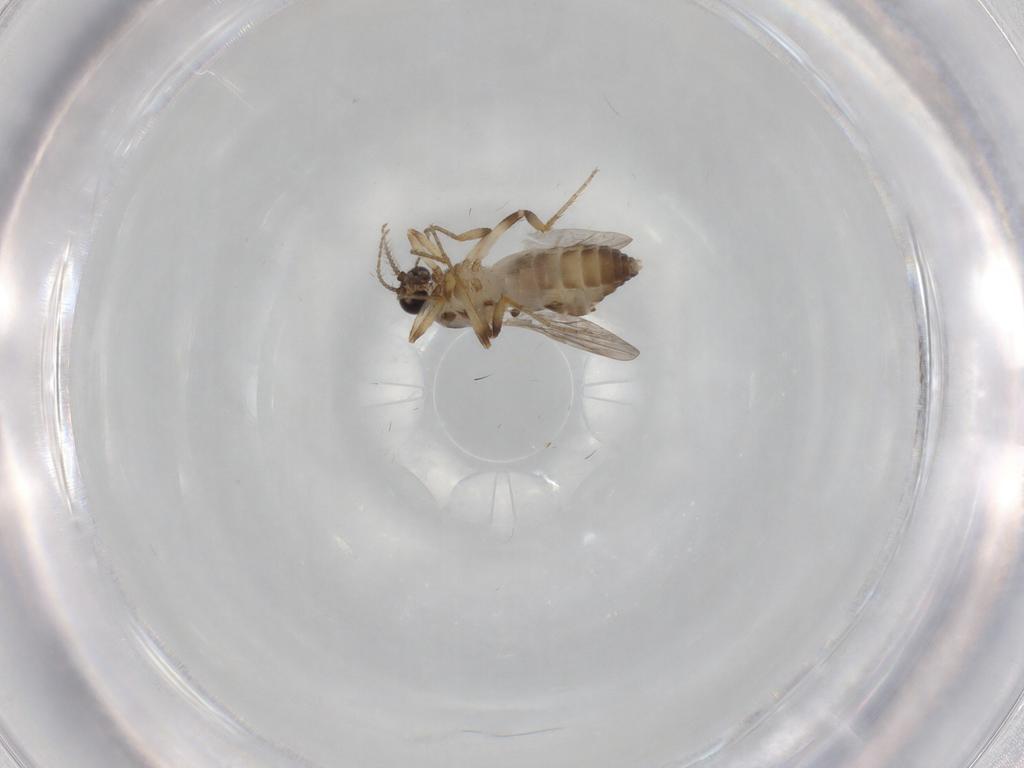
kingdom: Animalia
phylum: Arthropoda
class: Insecta
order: Diptera
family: Ceratopogonidae
